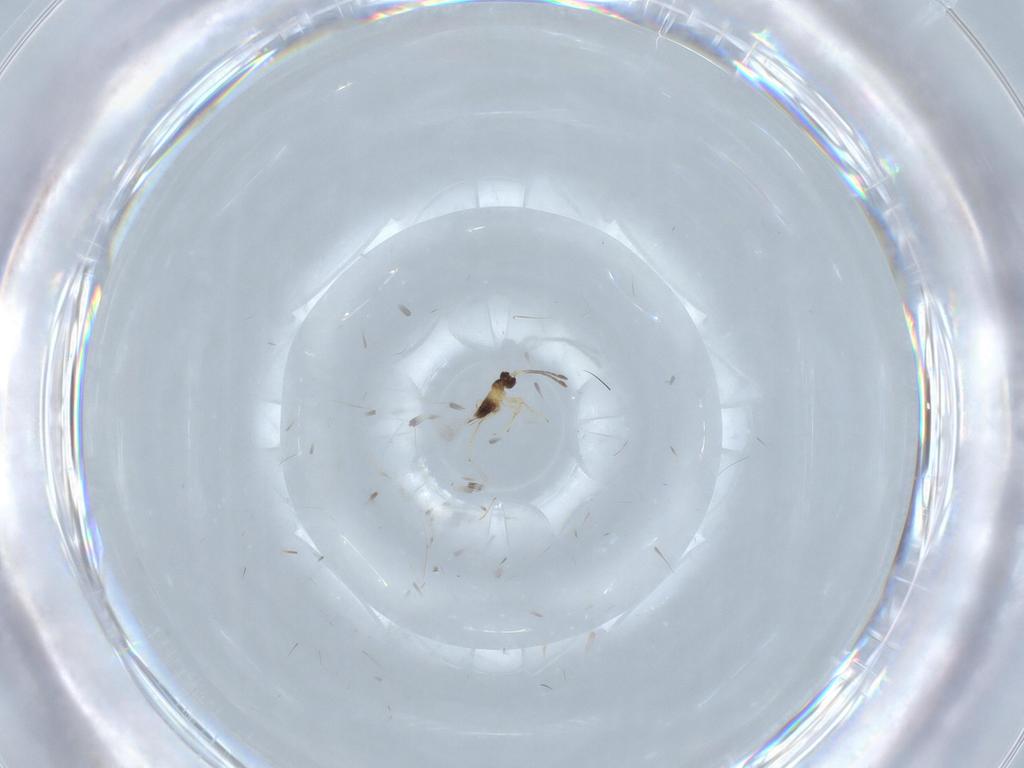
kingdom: Animalia
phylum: Arthropoda
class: Insecta
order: Hymenoptera
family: Mymaridae
